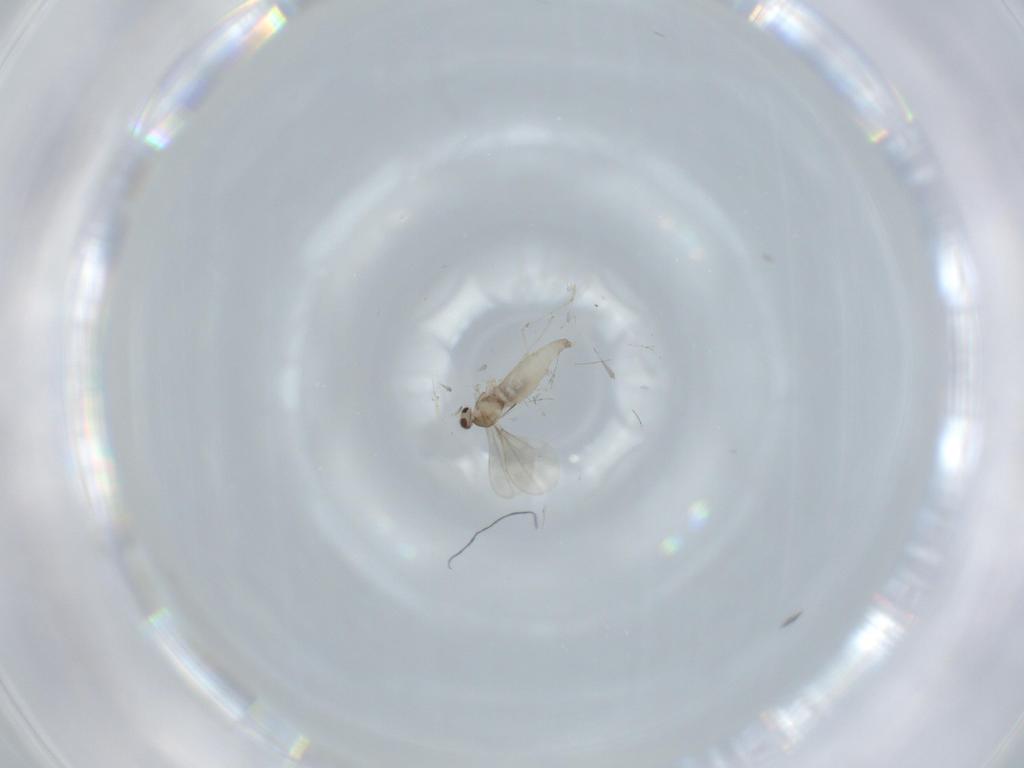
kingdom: Animalia
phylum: Arthropoda
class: Insecta
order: Diptera
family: Cecidomyiidae
